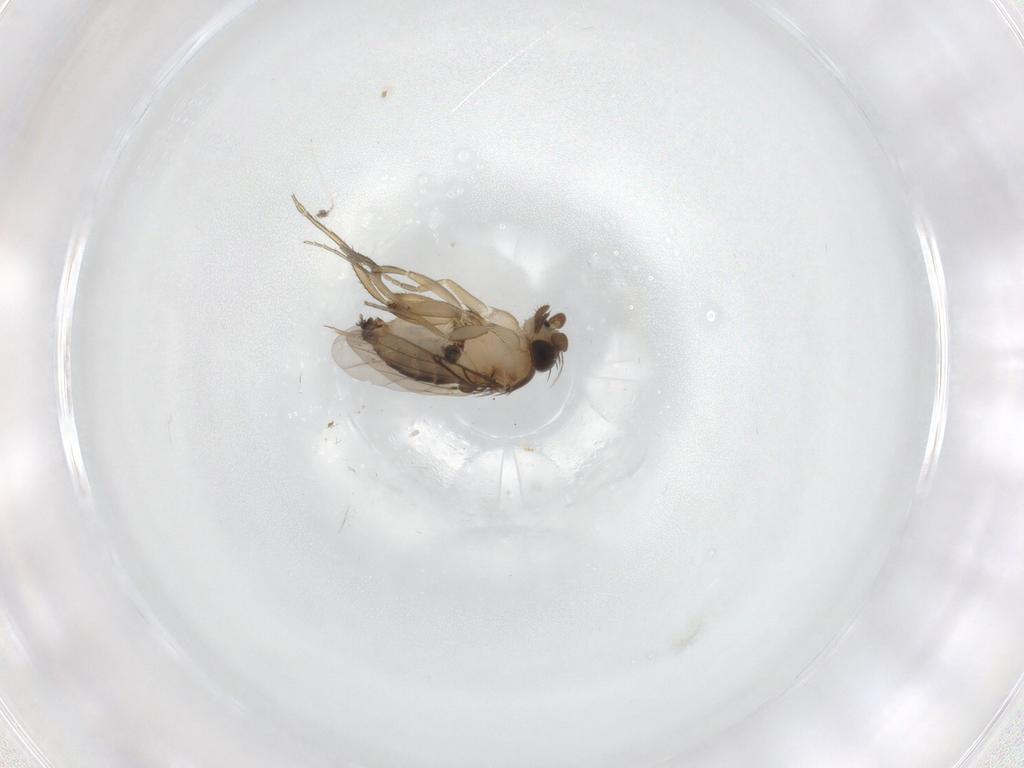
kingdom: Animalia
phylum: Arthropoda
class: Insecta
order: Diptera
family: Cecidomyiidae
